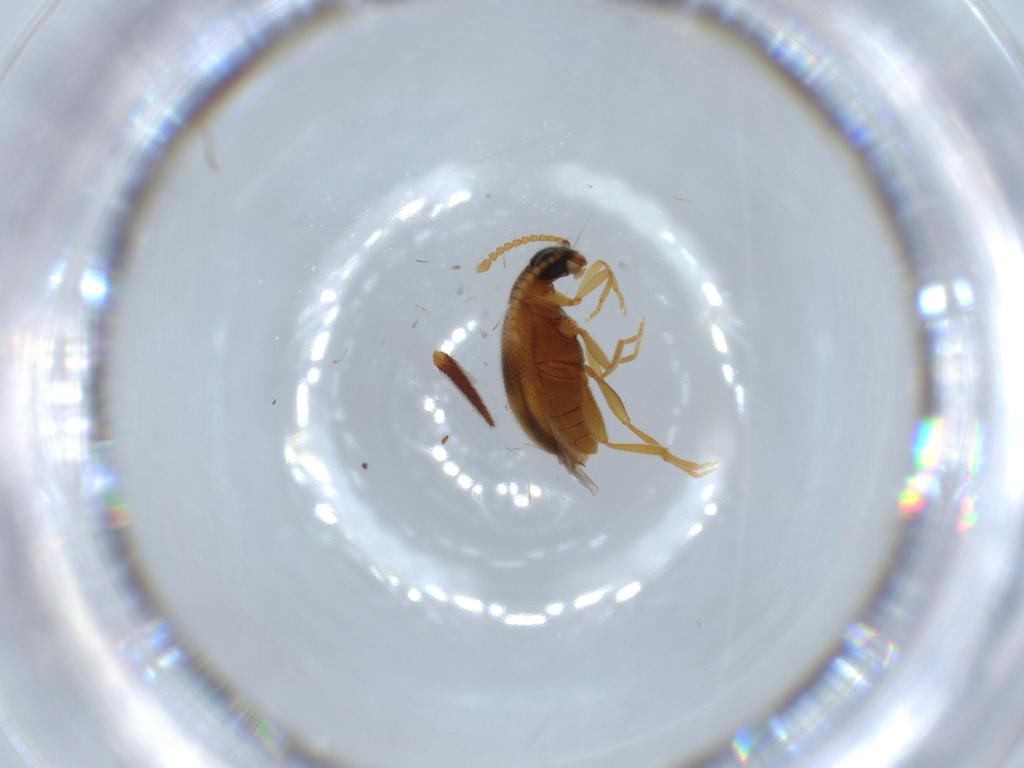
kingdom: Animalia
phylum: Arthropoda
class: Insecta
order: Coleoptera
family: Aderidae
